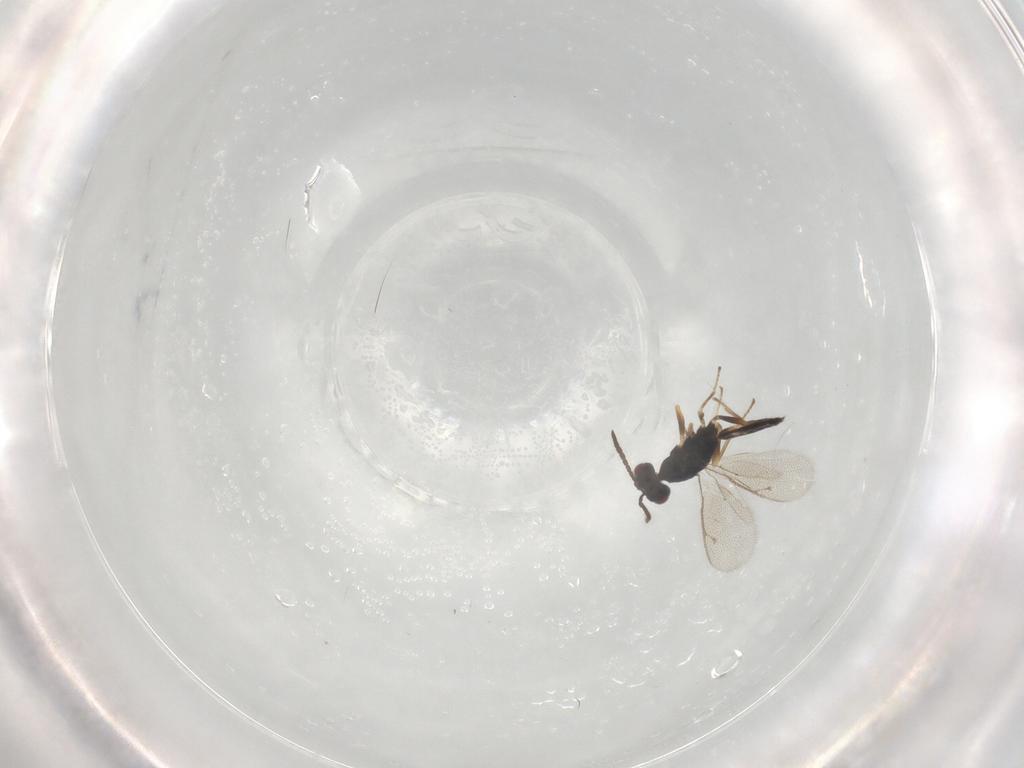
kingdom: Animalia
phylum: Arthropoda
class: Insecta
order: Hymenoptera
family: Pteromalidae
